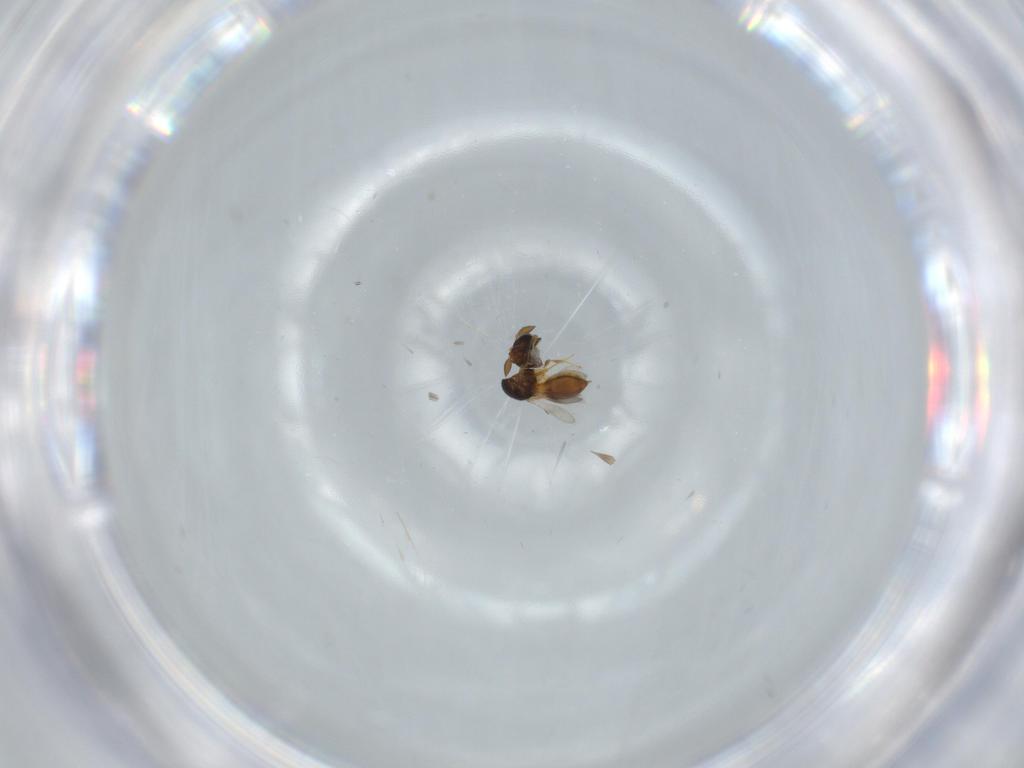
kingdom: Animalia
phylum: Arthropoda
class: Insecta
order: Hymenoptera
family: Scelionidae
